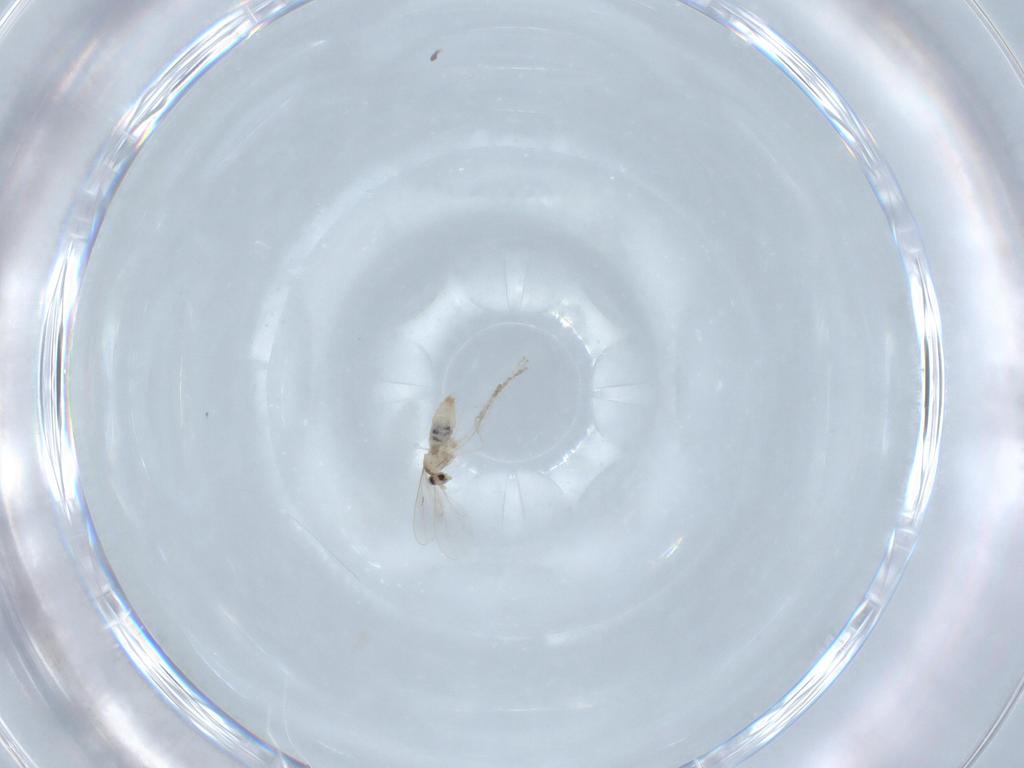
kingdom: Animalia
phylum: Arthropoda
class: Insecta
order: Diptera
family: Cecidomyiidae
